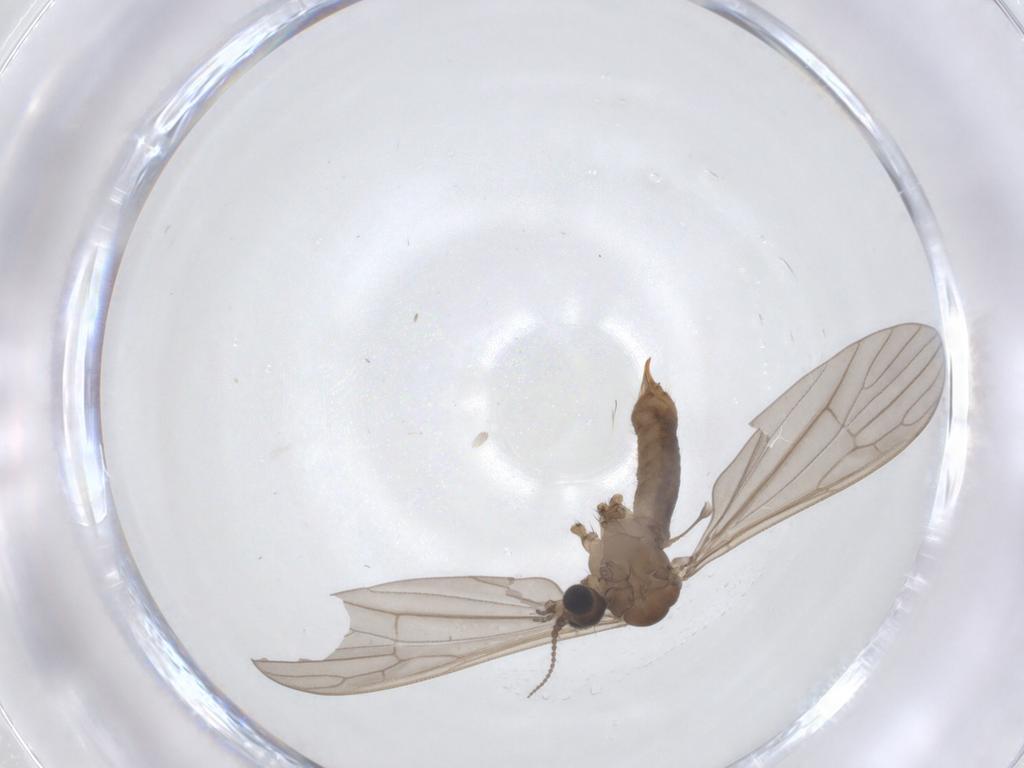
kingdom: Animalia
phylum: Arthropoda
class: Insecta
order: Diptera
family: Limoniidae
